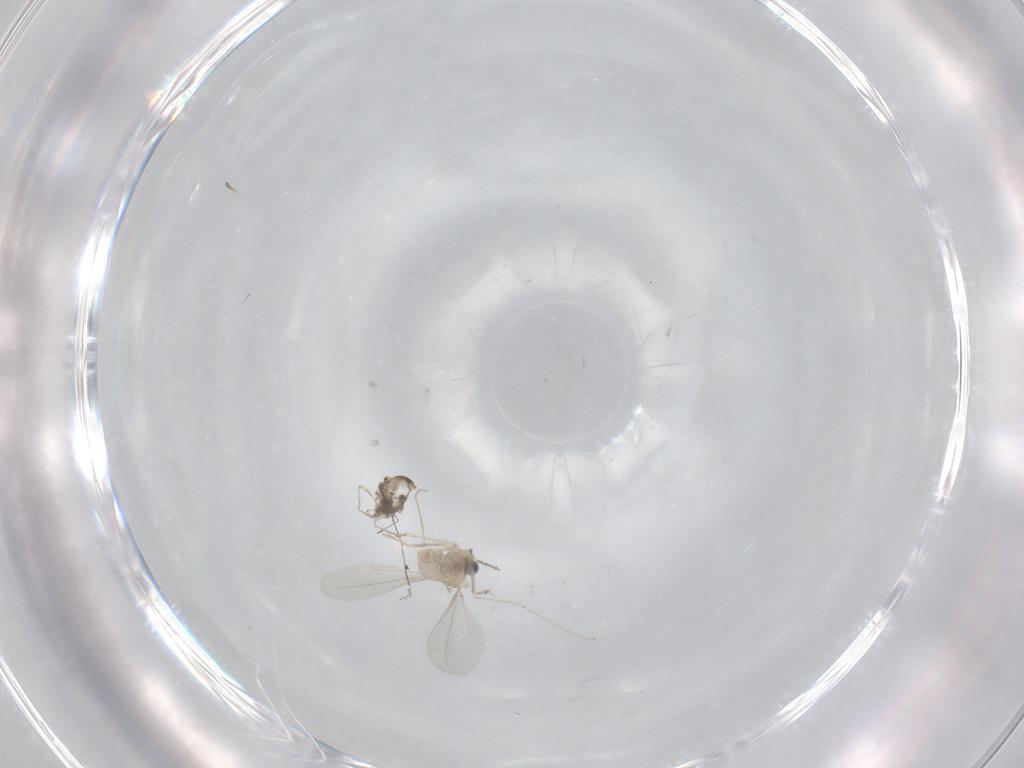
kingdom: Animalia
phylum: Arthropoda
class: Insecta
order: Diptera
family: Cecidomyiidae
